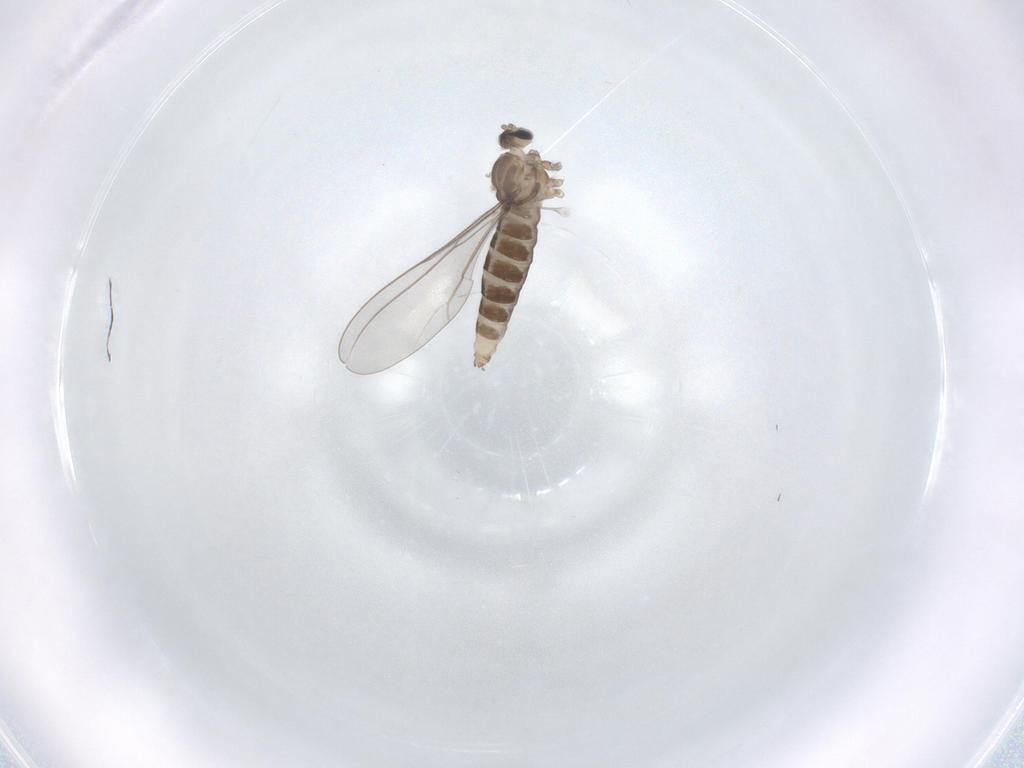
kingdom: Animalia
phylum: Arthropoda
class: Insecta
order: Diptera
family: Cecidomyiidae
